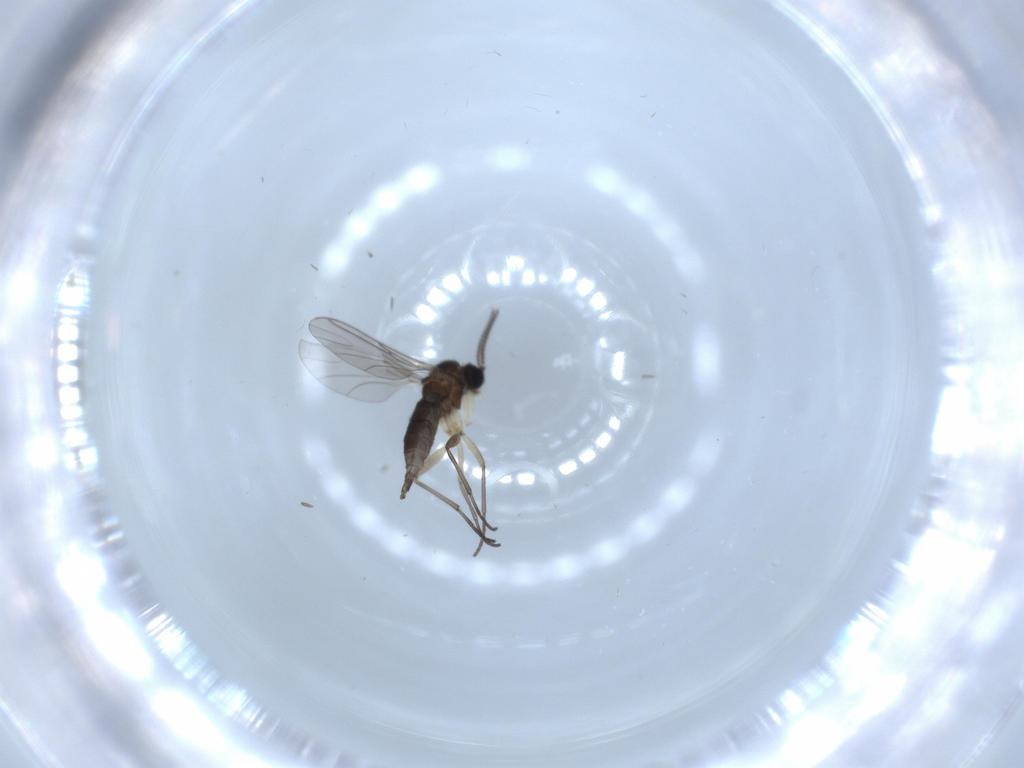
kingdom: Animalia
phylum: Arthropoda
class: Insecta
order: Diptera
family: Sciaridae
